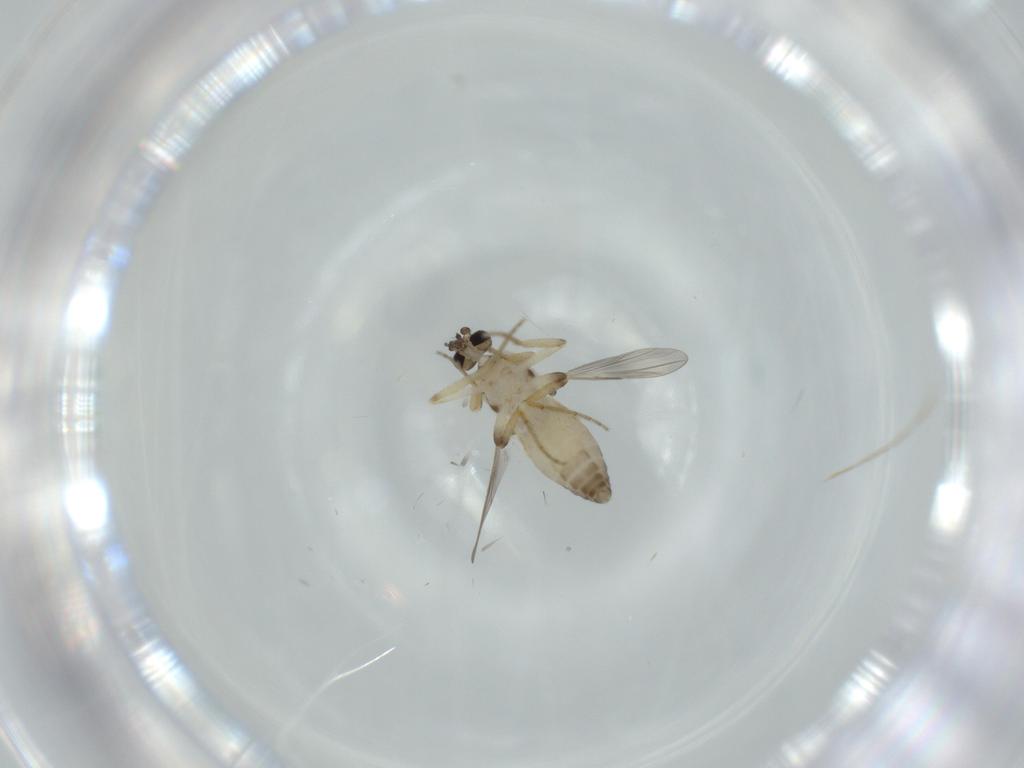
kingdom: Animalia
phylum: Arthropoda
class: Insecta
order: Diptera
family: Ceratopogonidae
